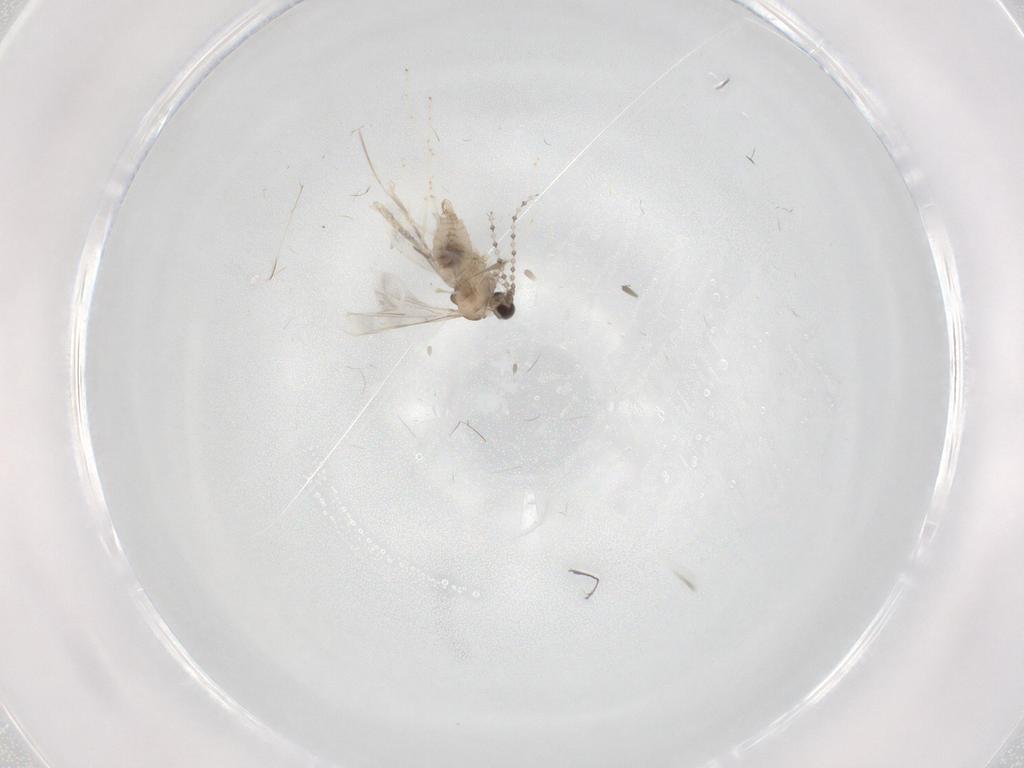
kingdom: Animalia
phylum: Arthropoda
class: Insecta
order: Diptera
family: Cecidomyiidae
